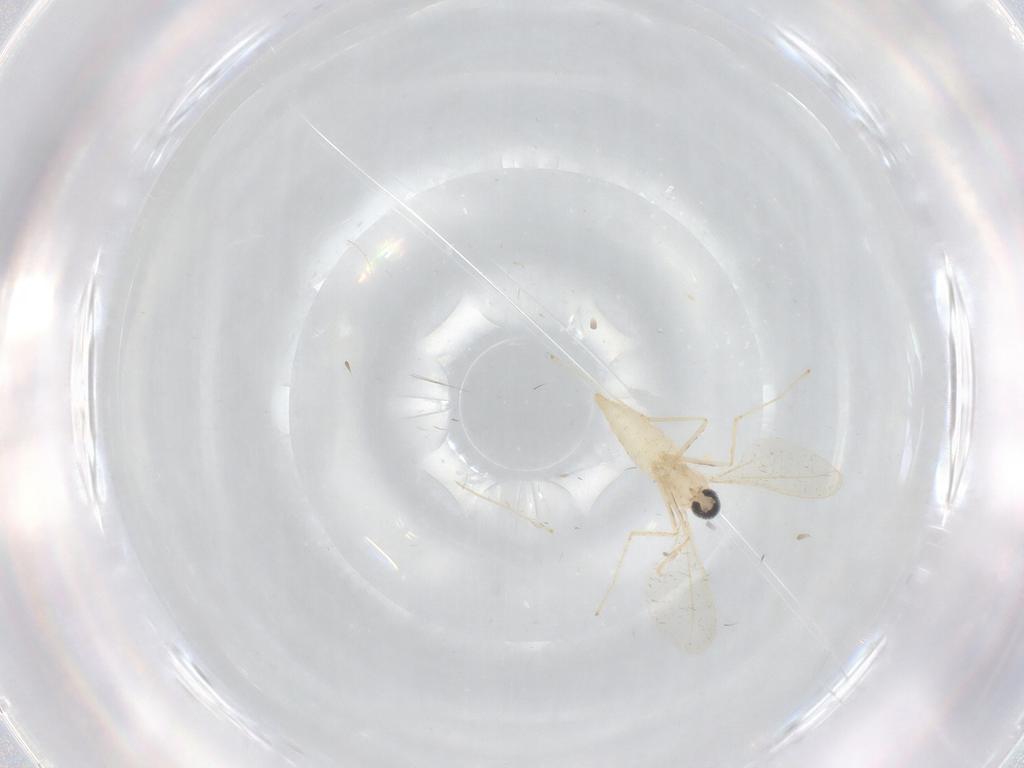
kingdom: Animalia
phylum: Arthropoda
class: Insecta
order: Diptera
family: Cecidomyiidae
